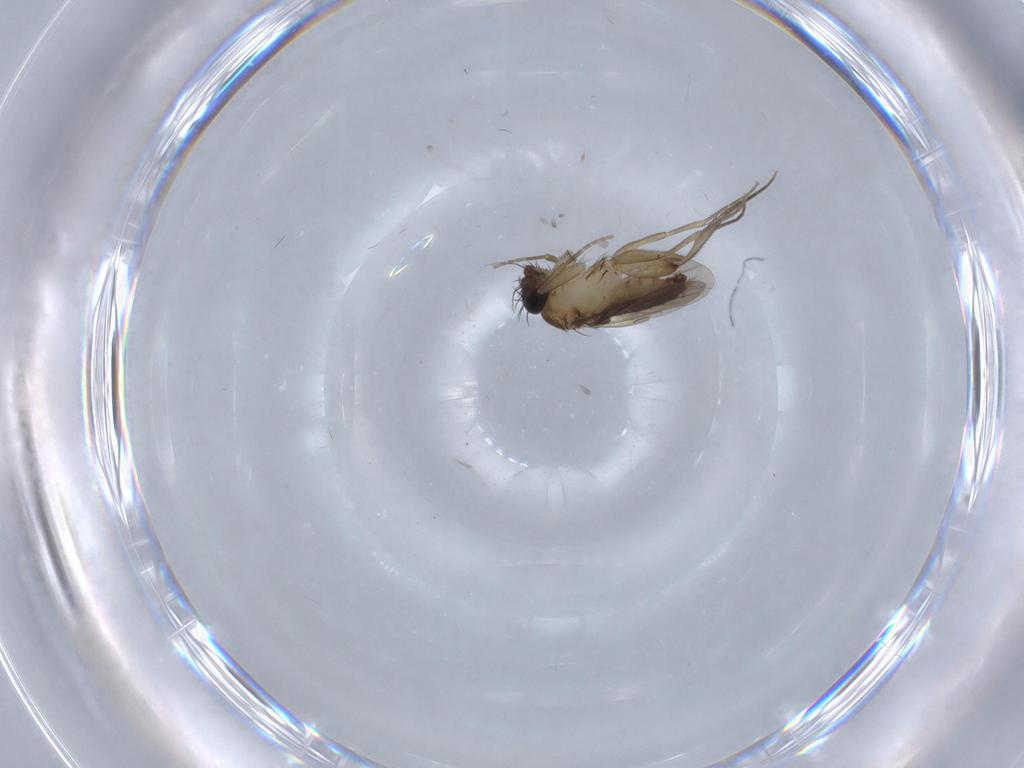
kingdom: Animalia
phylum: Arthropoda
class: Insecta
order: Diptera
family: Phoridae
